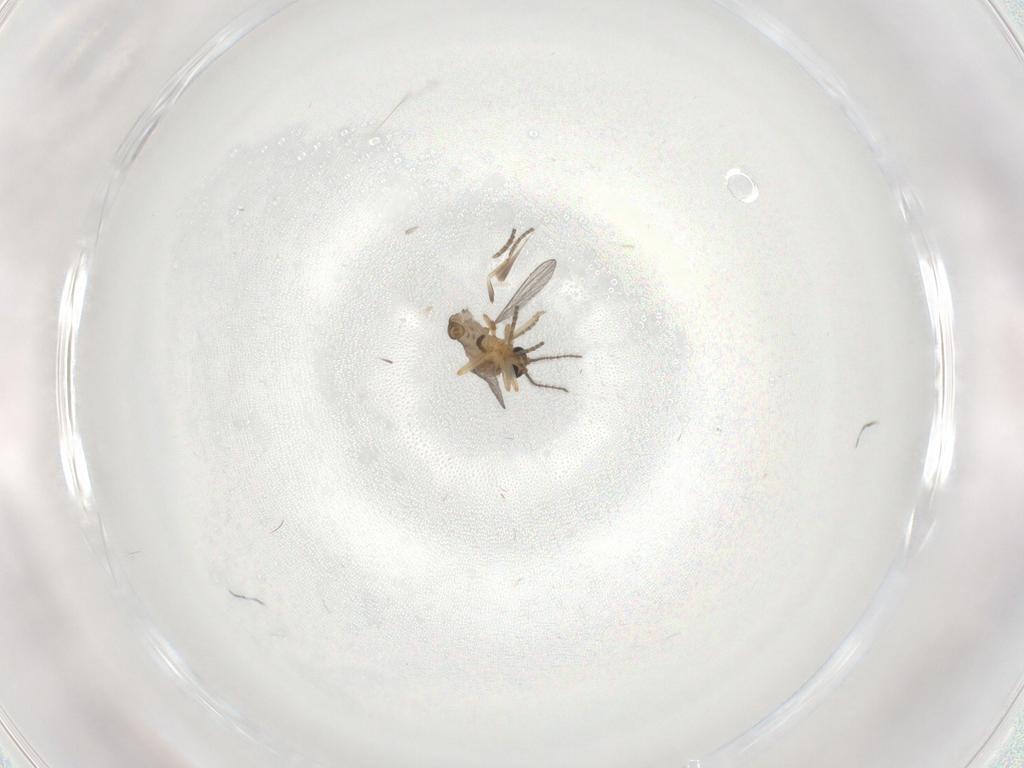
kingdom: Animalia
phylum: Arthropoda
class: Insecta
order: Diptera
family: Ceratopogonidae
